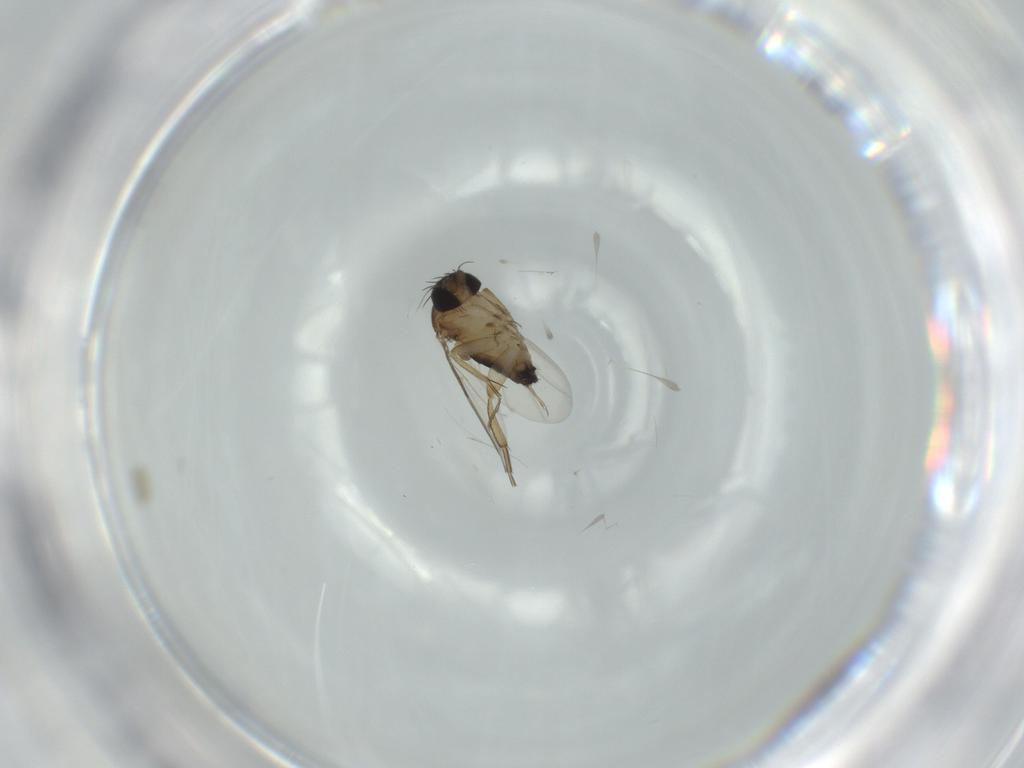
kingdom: Animalia
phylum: Arthropoda
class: Insecta
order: Diptera
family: Phoridae
